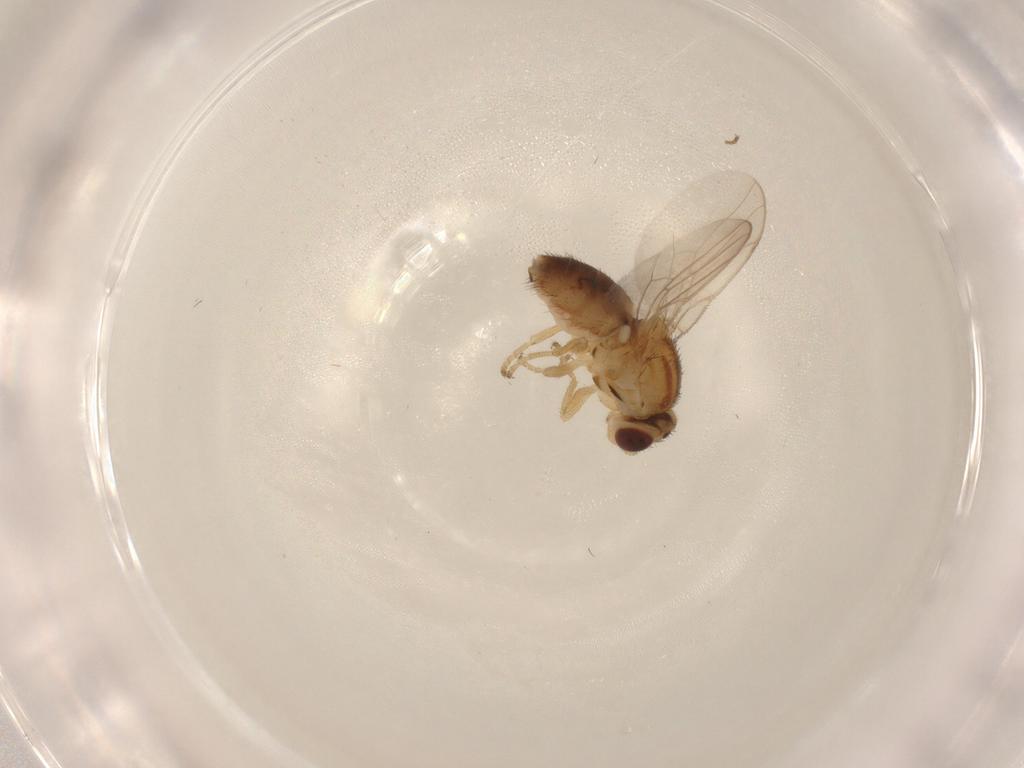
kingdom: Animalia
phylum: Arthropoda
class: Insecta
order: Diptera
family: Chloropidae
